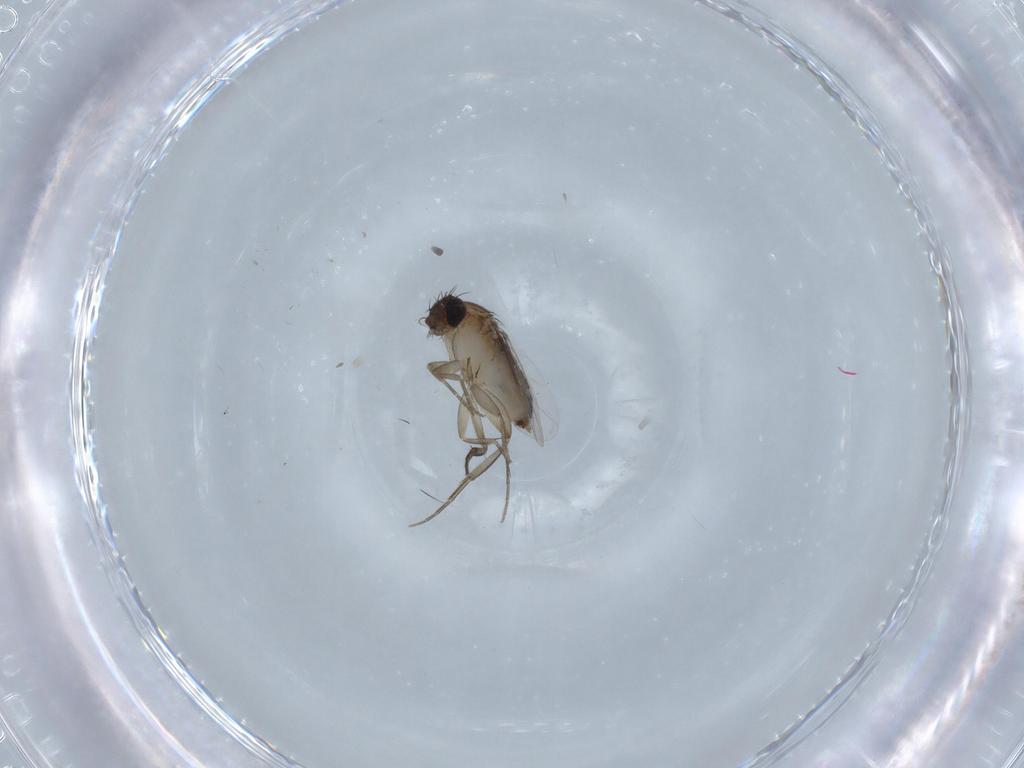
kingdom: Animalia
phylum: Arthropoda
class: Insecta
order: Diptera
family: Phoridae
